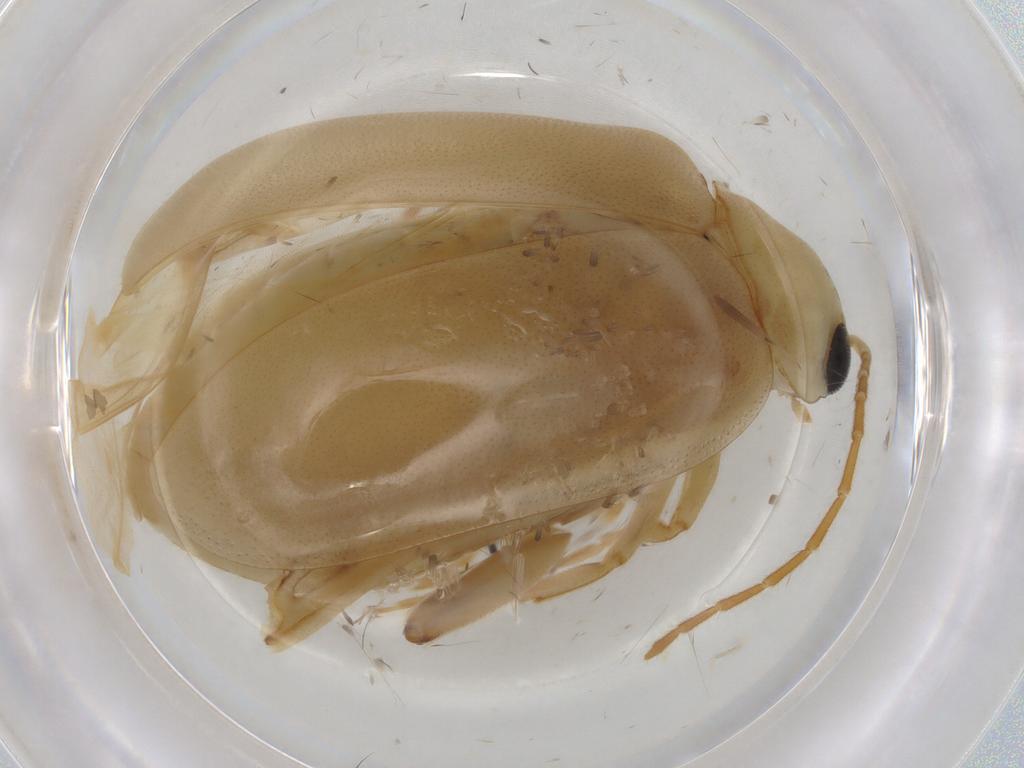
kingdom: Animalia
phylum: Arthropoda
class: Insecta
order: Coleoptera
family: Chrysomelidae
